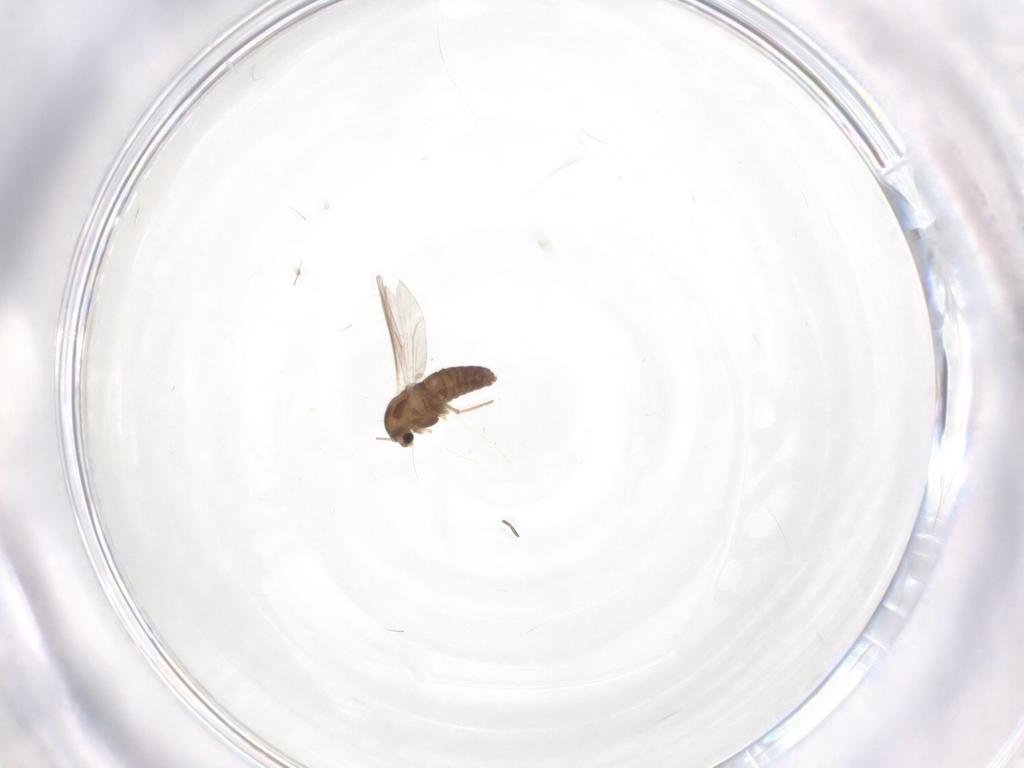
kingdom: Animalia
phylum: Arthropoda
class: Insecta
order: Diptera
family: Chironomidae
